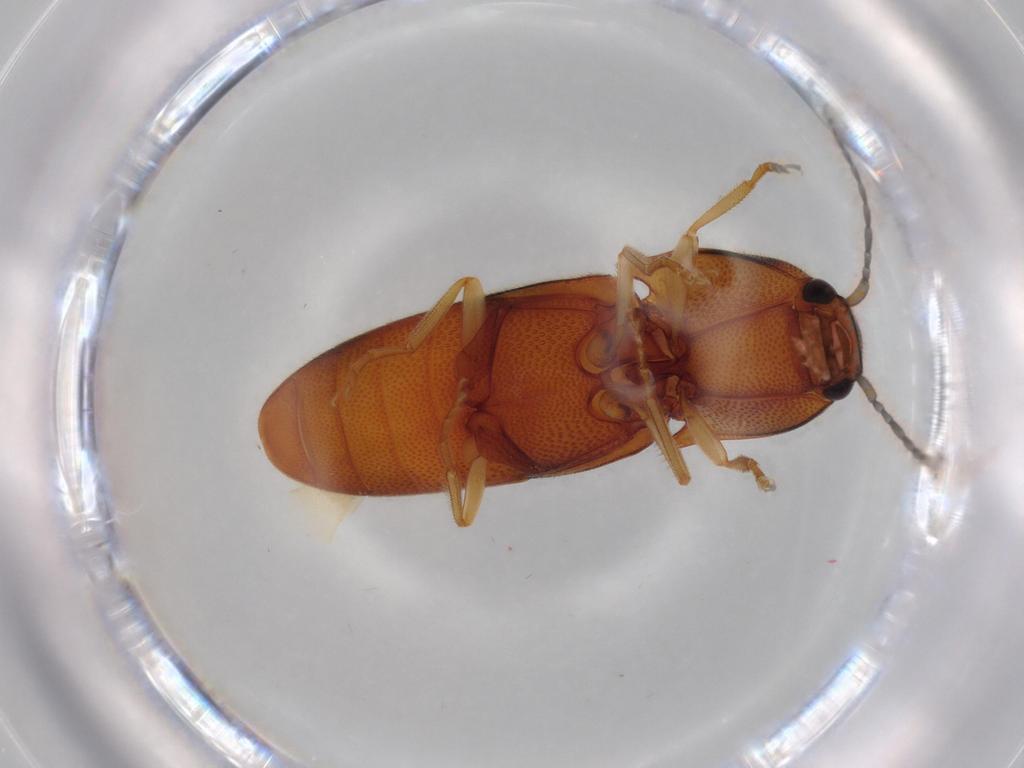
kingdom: Animalia
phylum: Arthropoda
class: Insecta
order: Coleoptera
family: Elateridae
